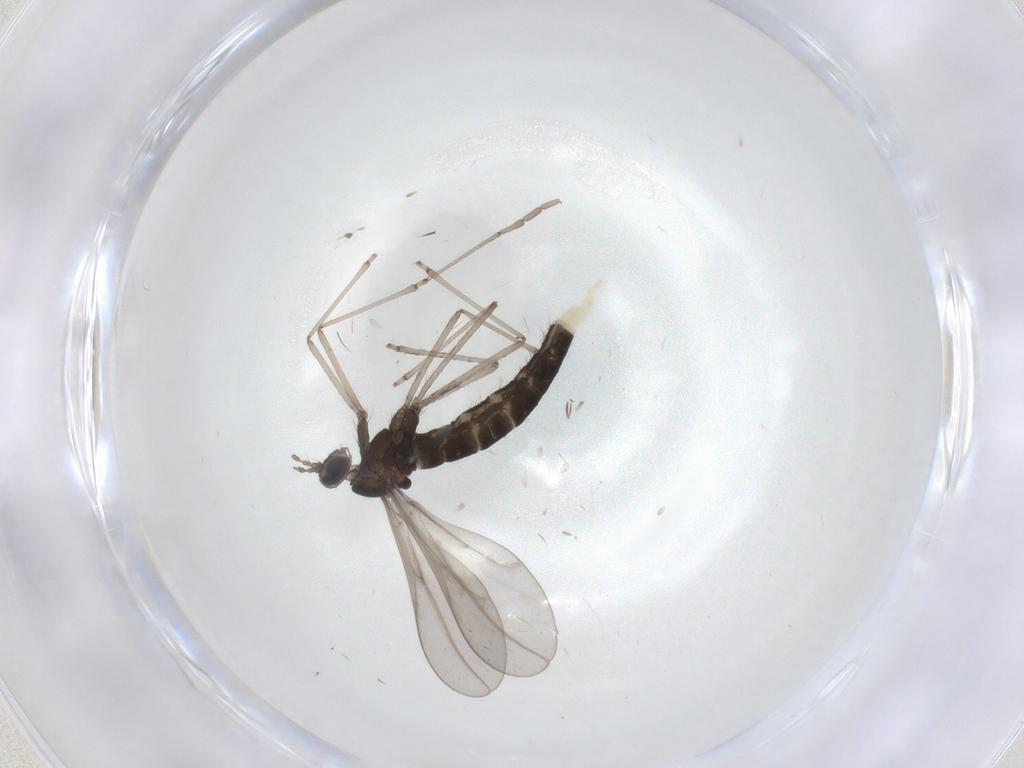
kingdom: Animalia
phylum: Arthropoda
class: Insecta
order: Diptera
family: Cecidomyiidae
